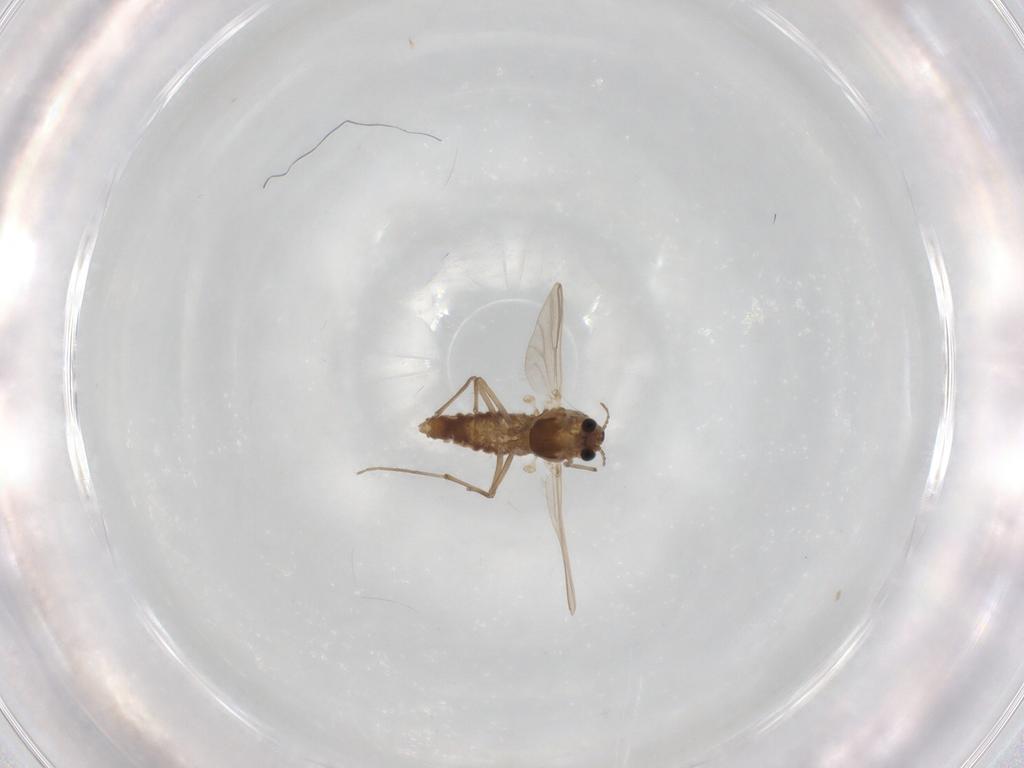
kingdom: Animalia
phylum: Arthropoda
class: Insecta
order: Diptera
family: Chironomidae
